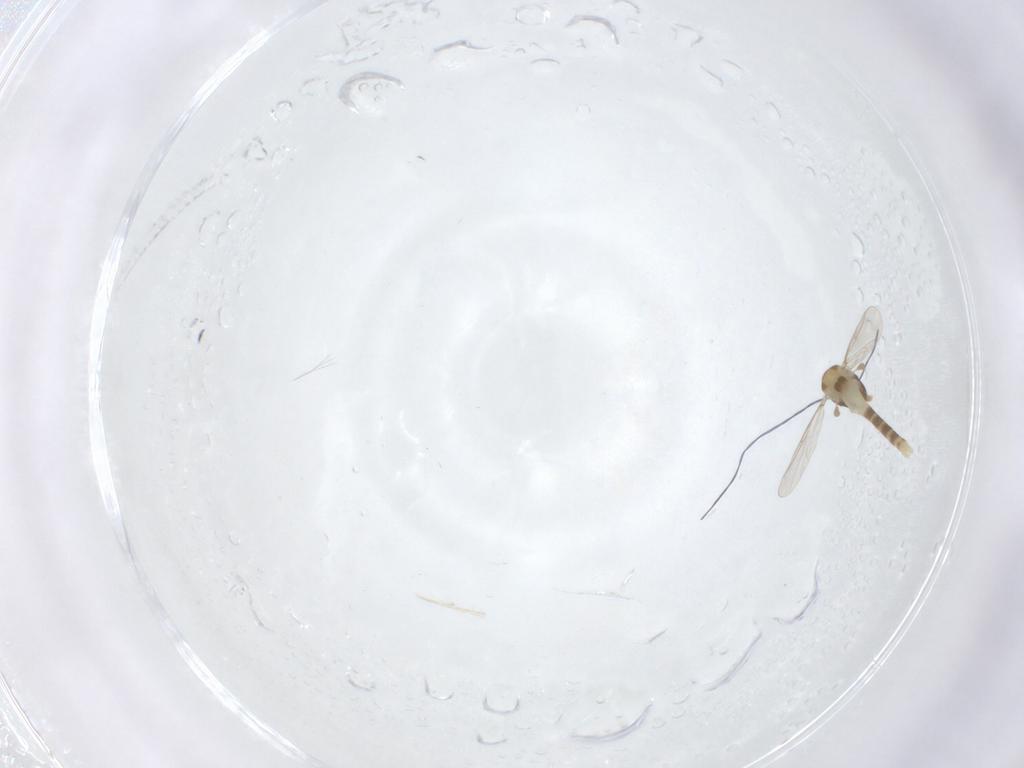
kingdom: Animalia
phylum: Arthropoda
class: Insecta
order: Diptera
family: Chironomidae
